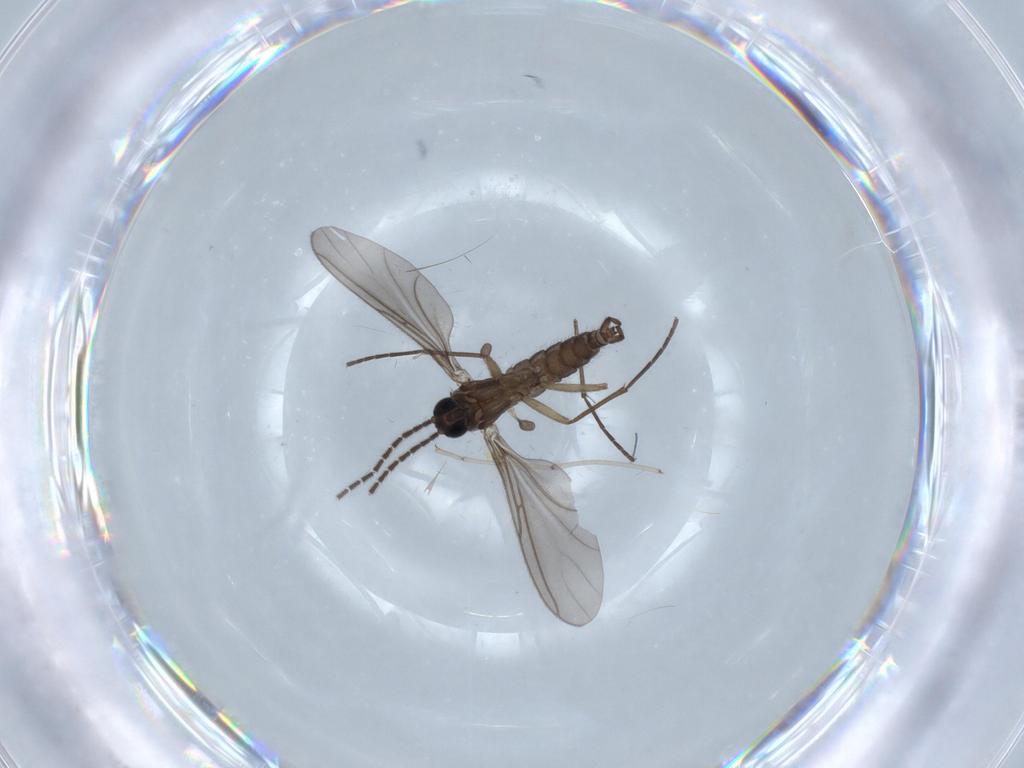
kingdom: Animalia
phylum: Arthropoda
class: Insecta
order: Diptera
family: Cecidomyiidae
